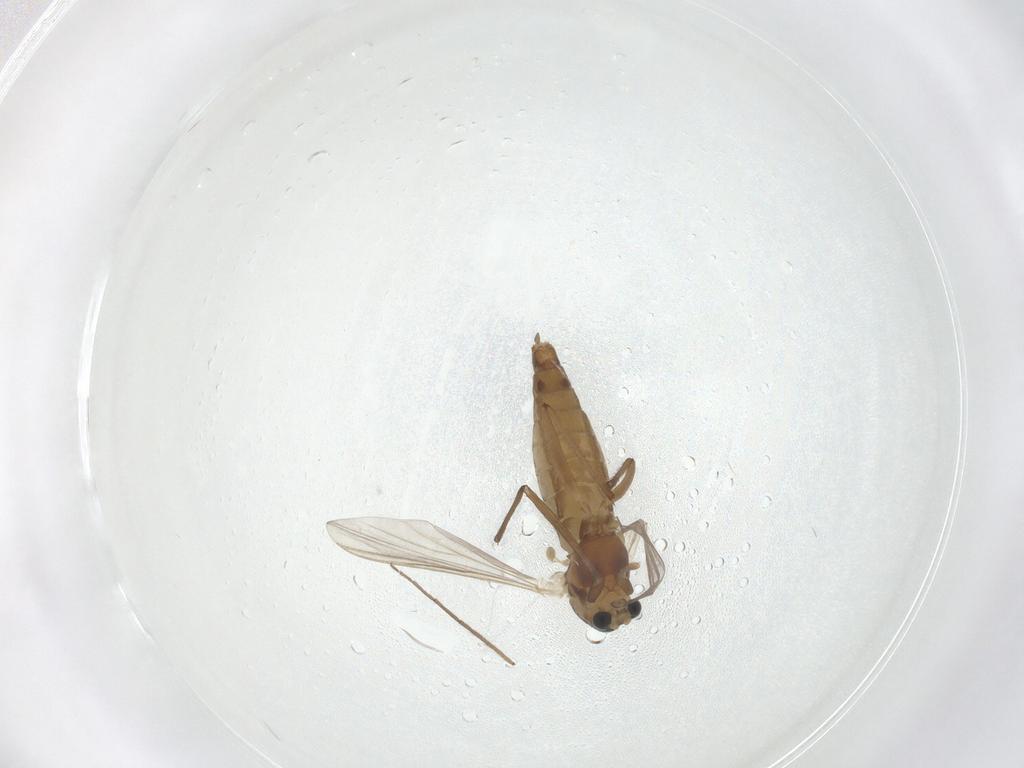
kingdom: Animalia
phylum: Arthropoda
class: Insecta
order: Diptera
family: Chironomidae
